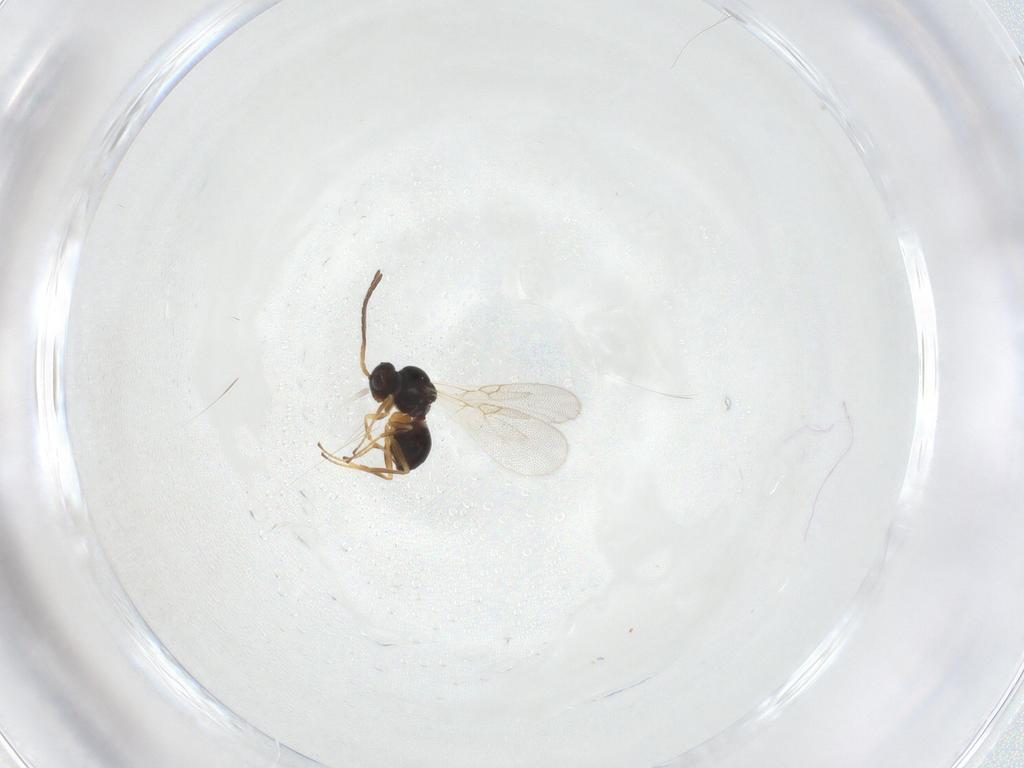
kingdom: Animalia
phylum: Arthropoda
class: Insecta
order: Hymenoptera
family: Figitidae
